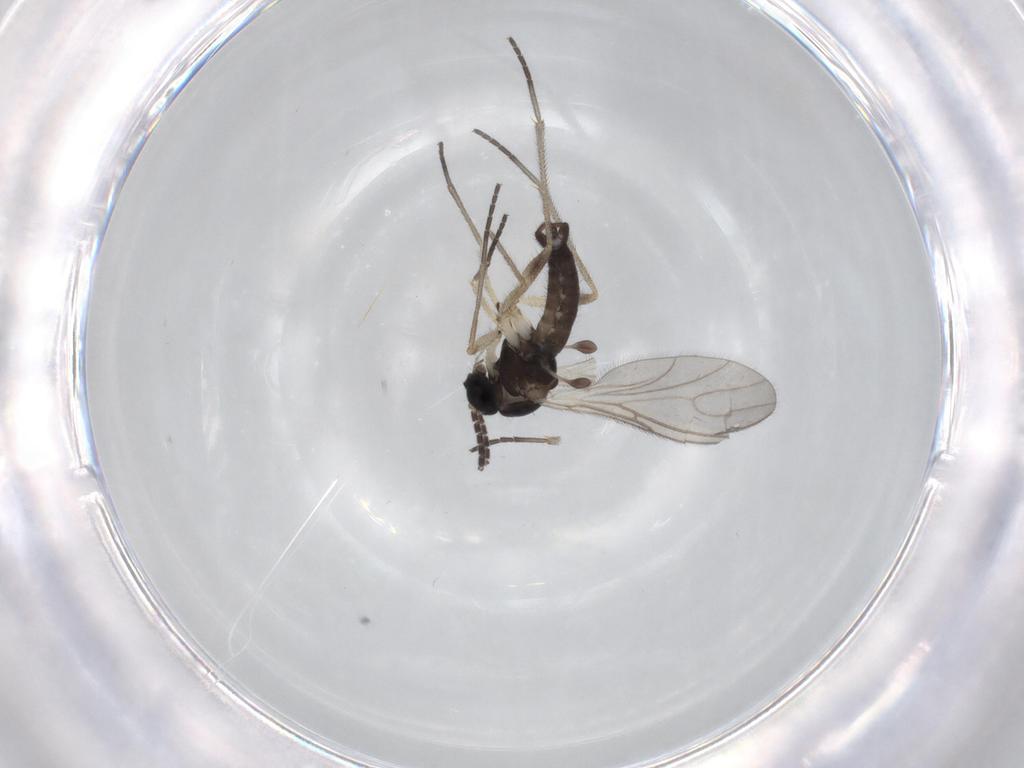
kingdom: Animalia
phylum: Arthropoda
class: Insecta
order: Diptera
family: Sciaridae
